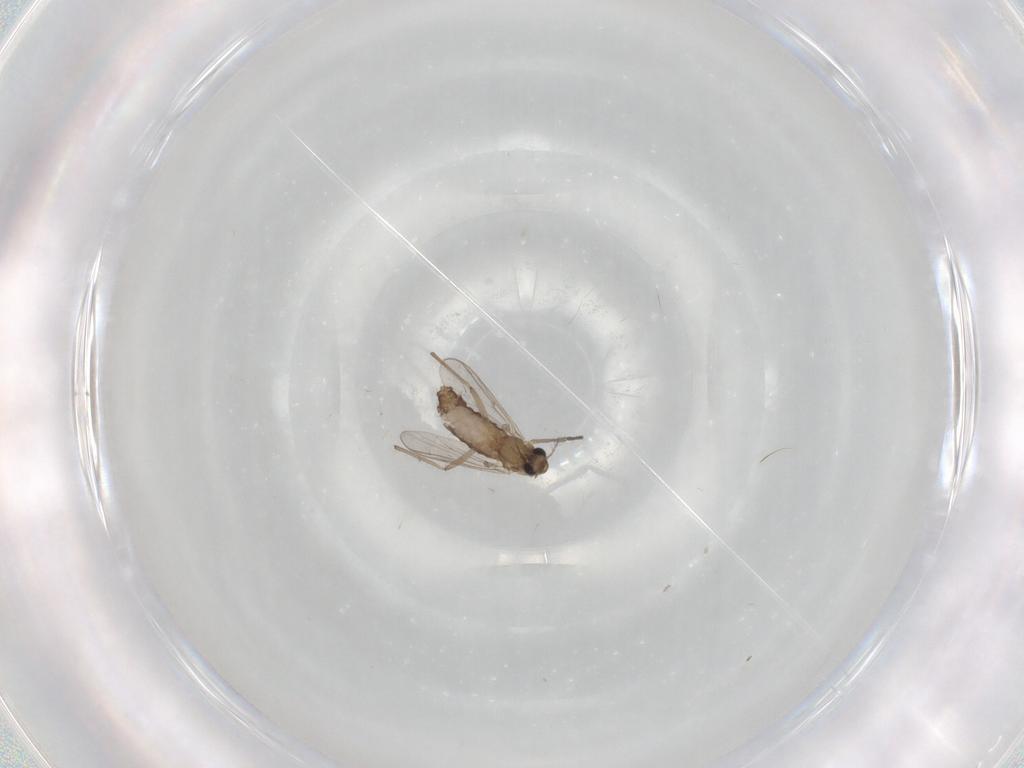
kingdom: Animalia
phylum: Arthropoda
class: Insecta
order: Diptera
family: Chironomidae
